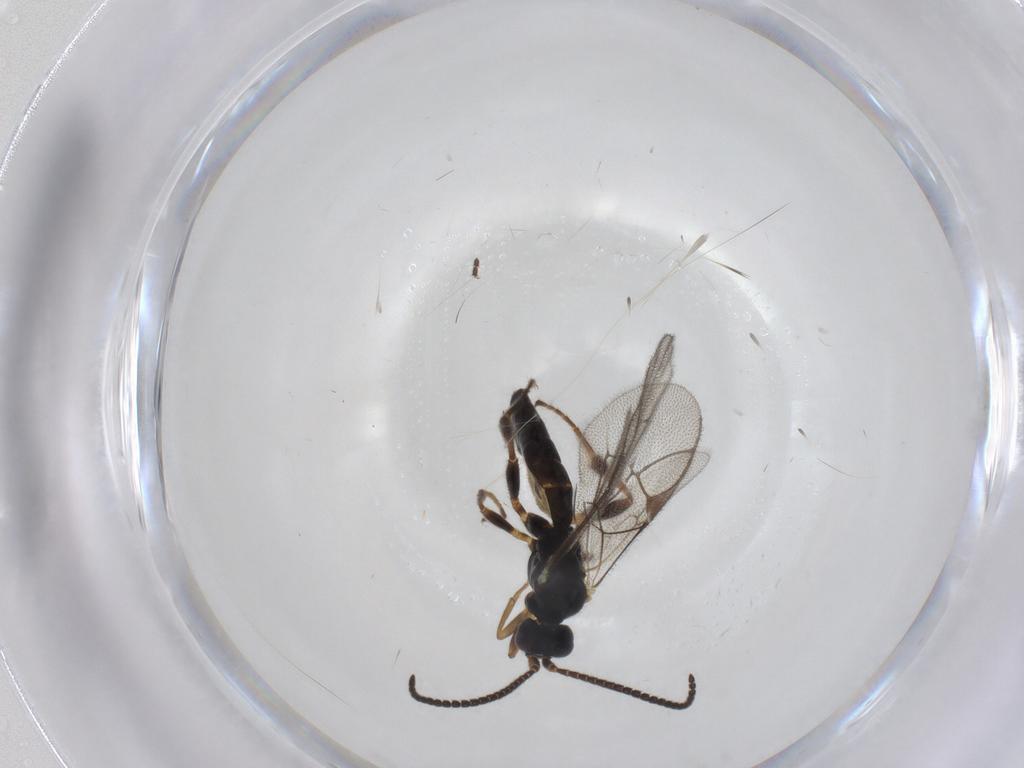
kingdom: Animalia
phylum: Arthropoda
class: Insecta
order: Hymenoptera
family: Ichneumonidae
